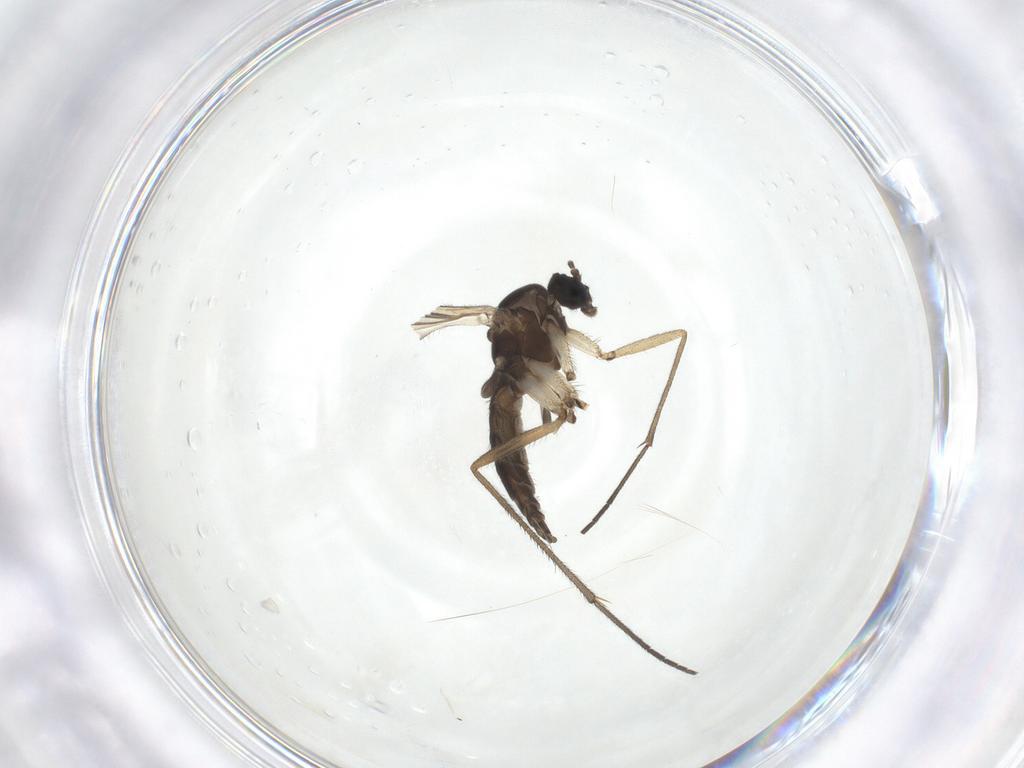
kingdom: Animalia
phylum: Arthropoda
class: Insecta
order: Diptera
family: Sciaridae
